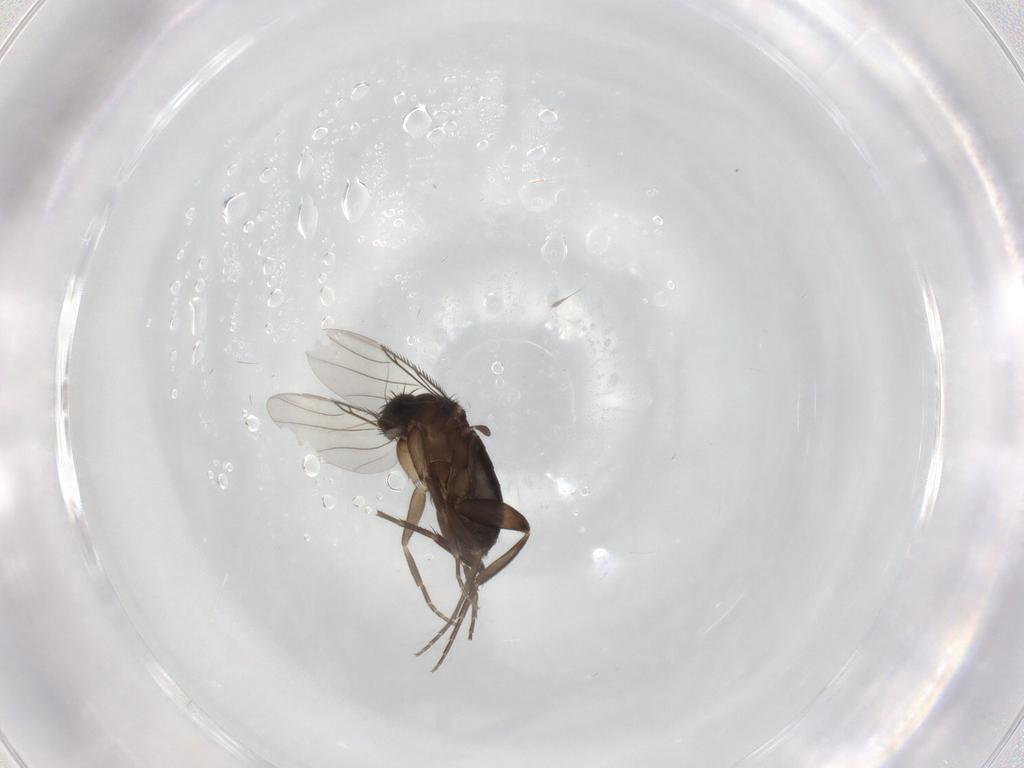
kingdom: Animalia
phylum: Arthropoda
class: Insecta
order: Diptera
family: Phoridae
